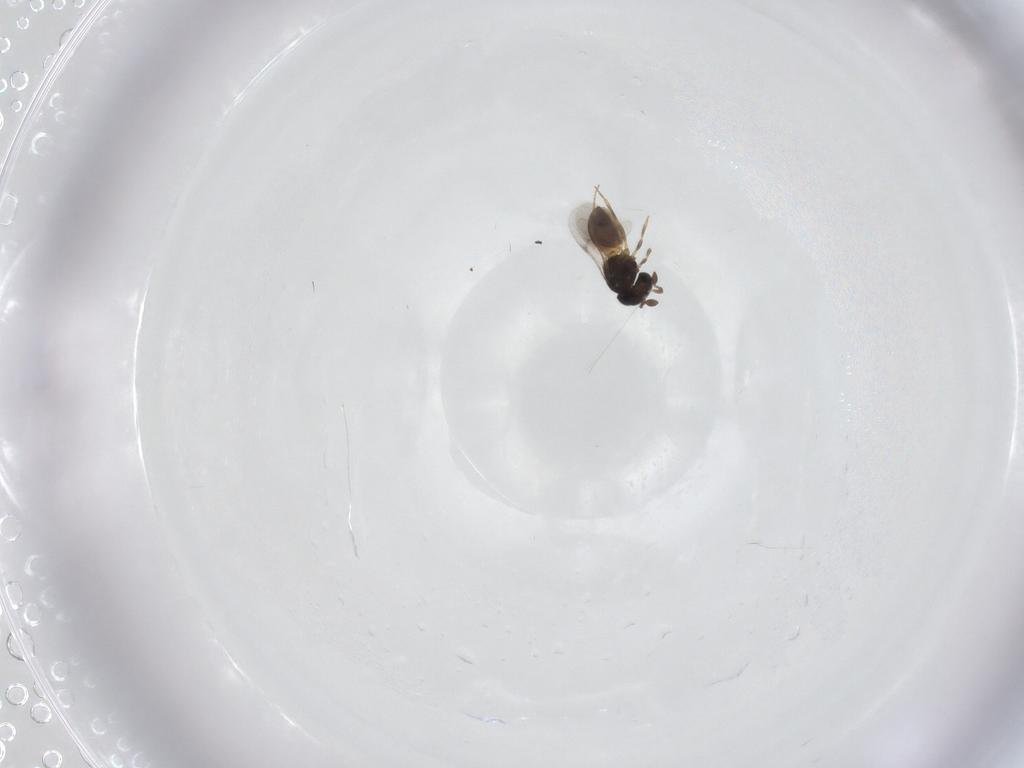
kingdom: Animalia
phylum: Arthropoda
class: Insecta
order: Hymenoptera
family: Scelionidae
